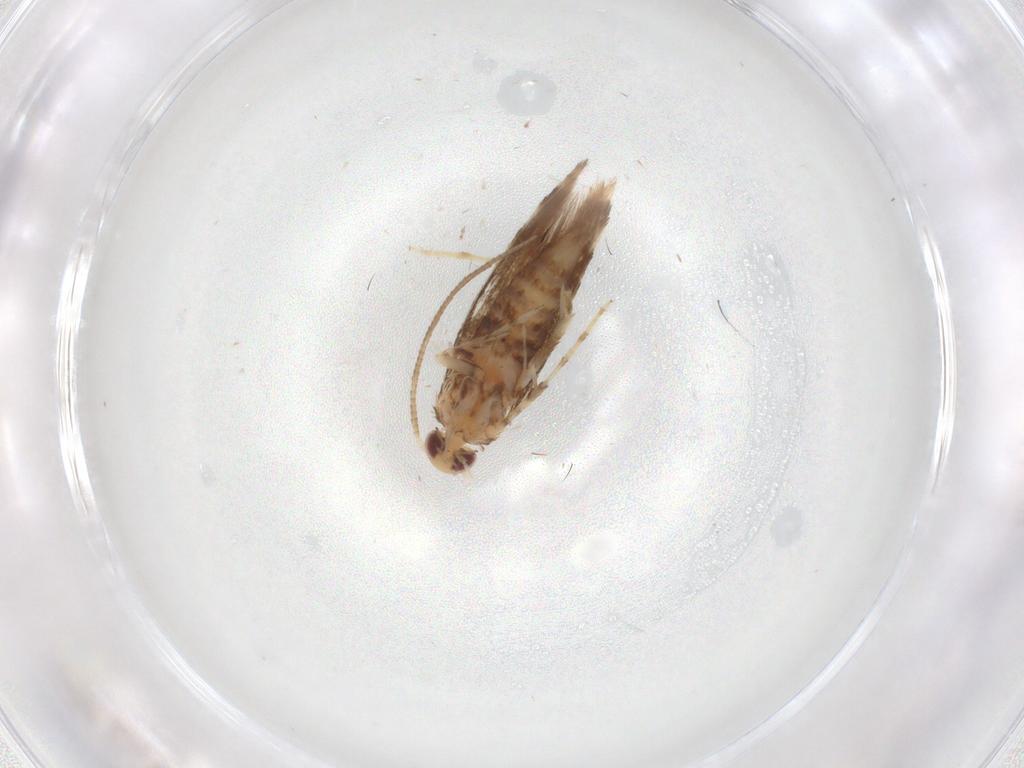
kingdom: Animalia
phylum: Arthropoda
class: Insecta
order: Lepidoptera
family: Gracillariidae
